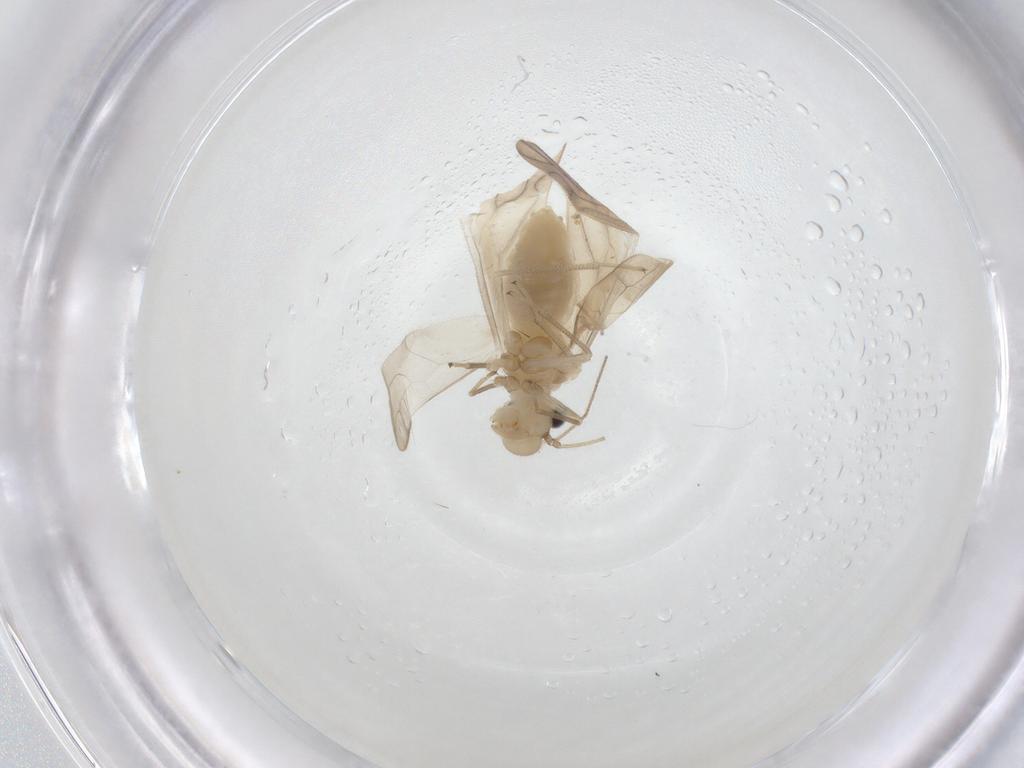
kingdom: Animalia
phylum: Arthropoda
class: Insecta
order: Psocodea
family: Caeciliusidae
